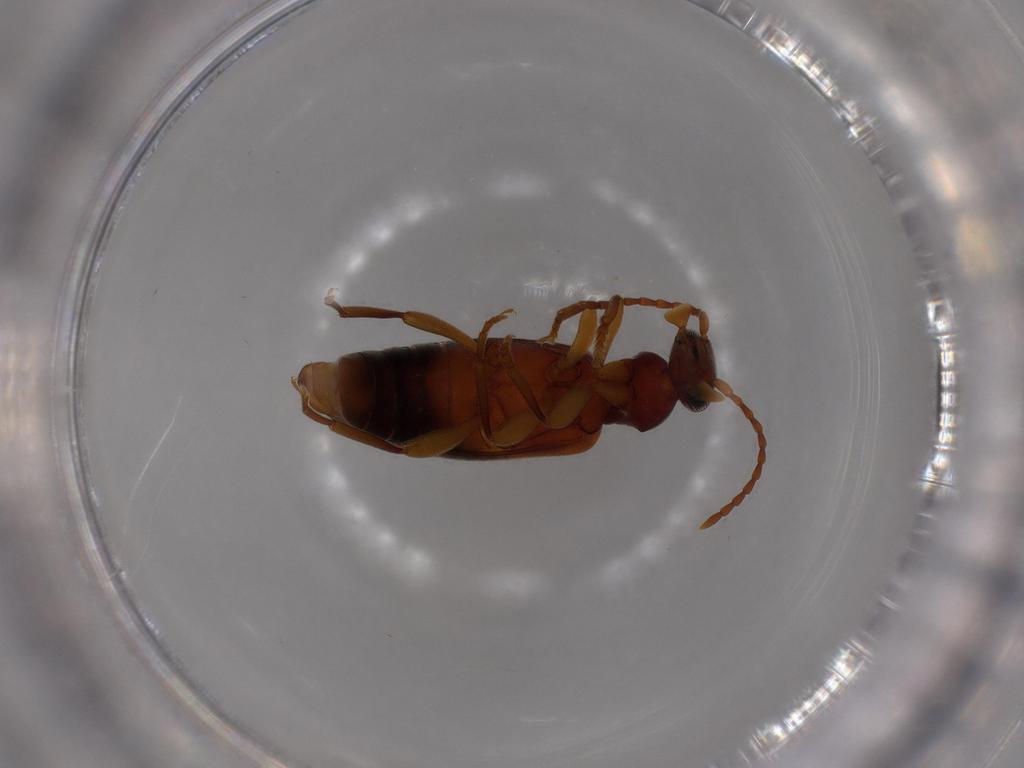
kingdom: Animalia
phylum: Arthropoda
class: Insecta
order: Coleoptera
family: Anthicidae
